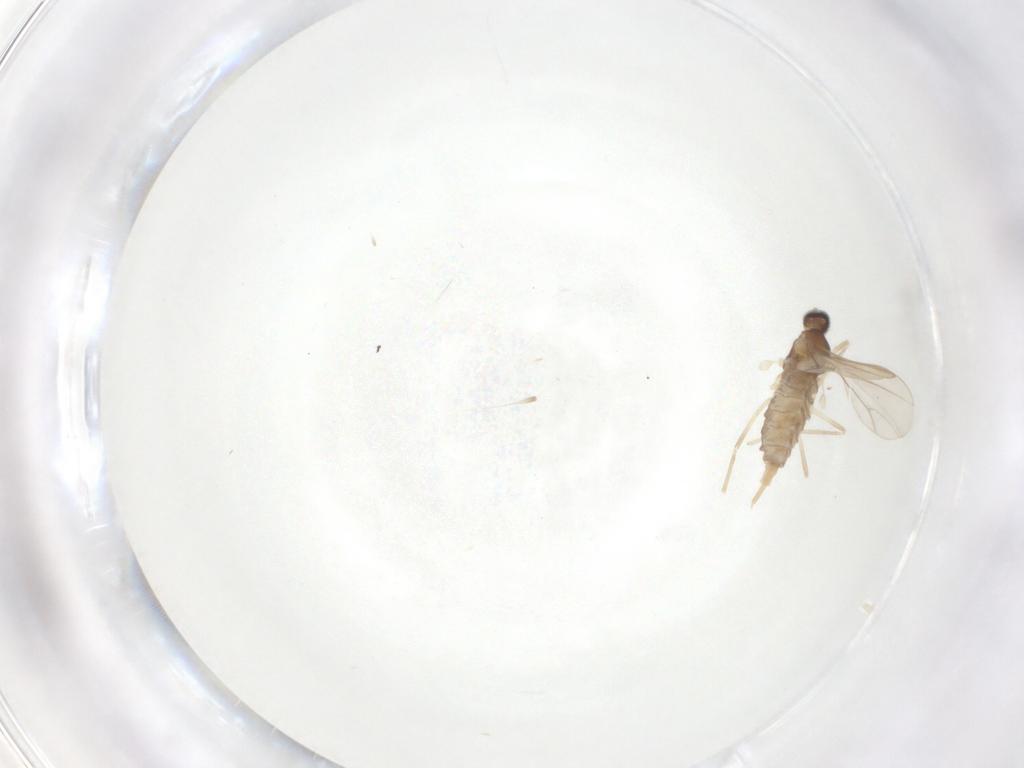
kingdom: Animalia
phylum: Arthropoda
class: Insecta
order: Diptera
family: Cecidomyiidae
